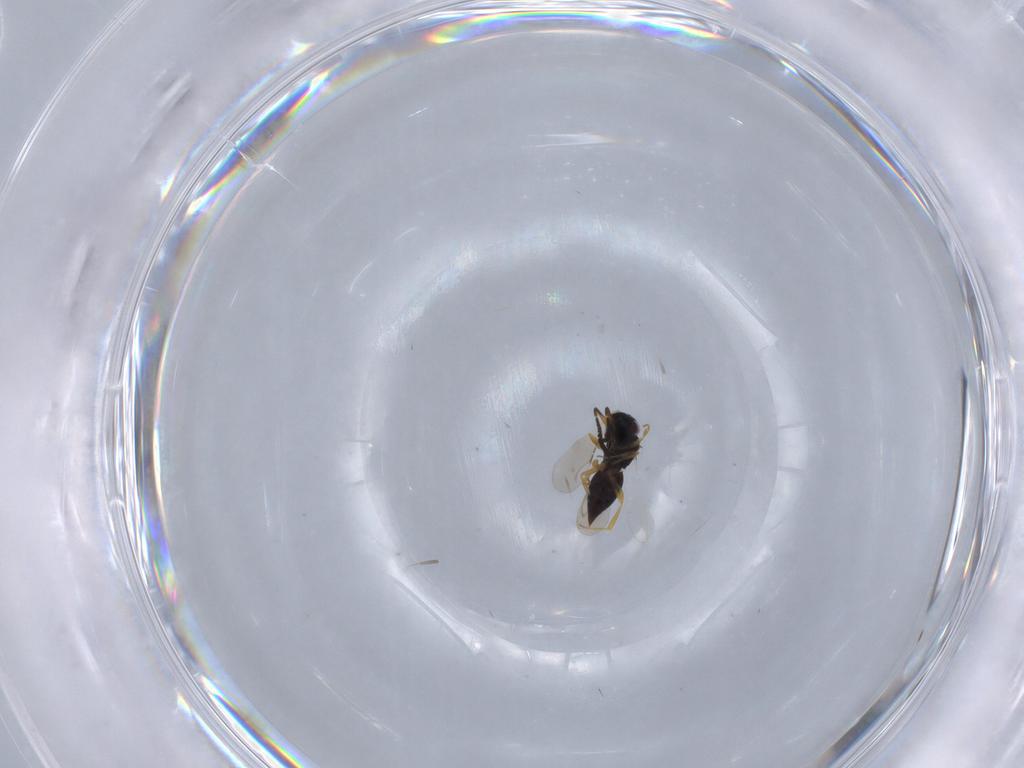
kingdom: Animalia
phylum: Arthropoda
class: Insecta
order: Hymenoptera
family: Ceraphronidae
